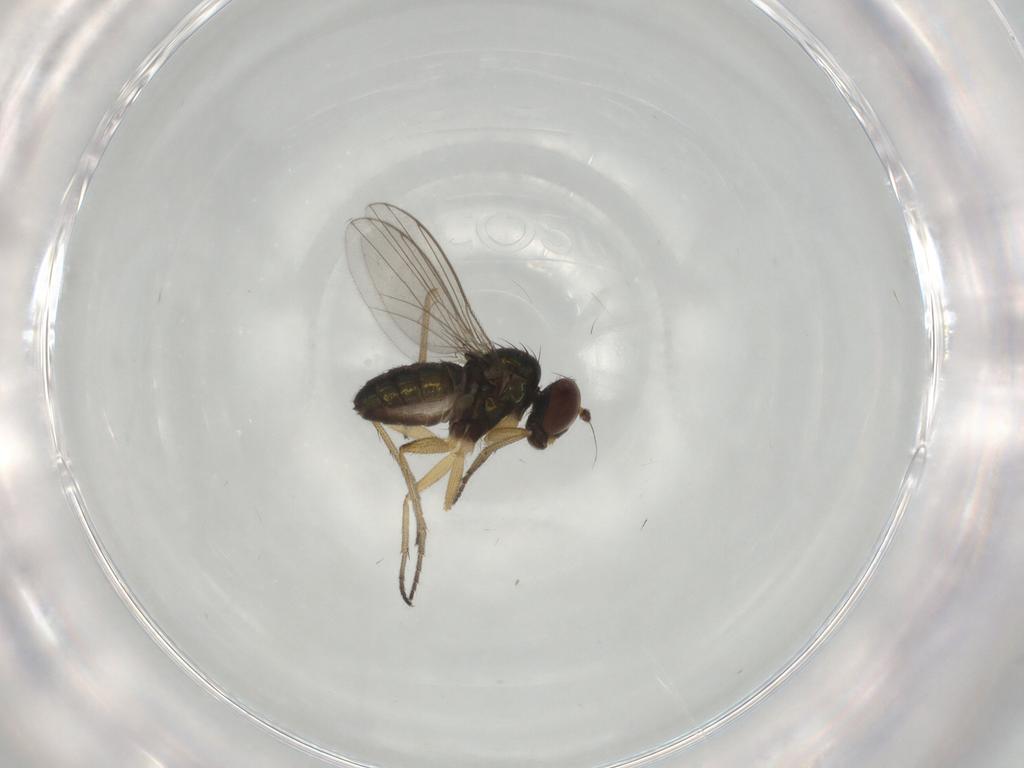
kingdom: Animalia
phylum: Arthropoda
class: Insecta
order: Diptera
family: Dolichopodidae
